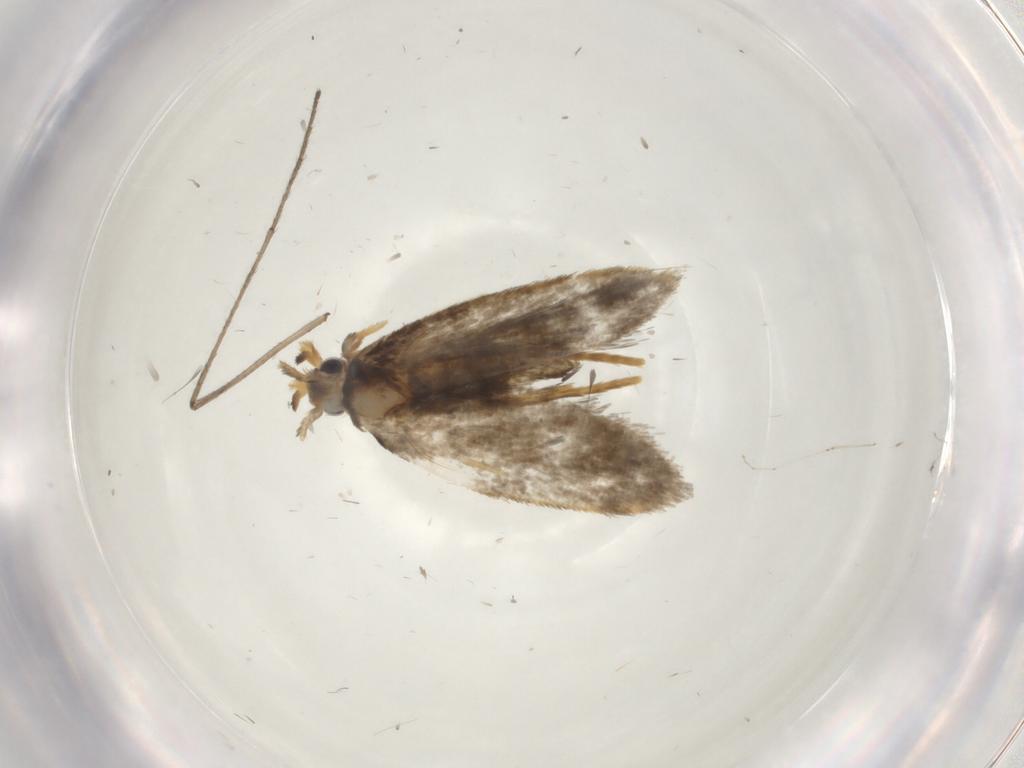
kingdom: Animalia
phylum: Arthropoda
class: Insecta
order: Lepidoptera
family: Psychidae
